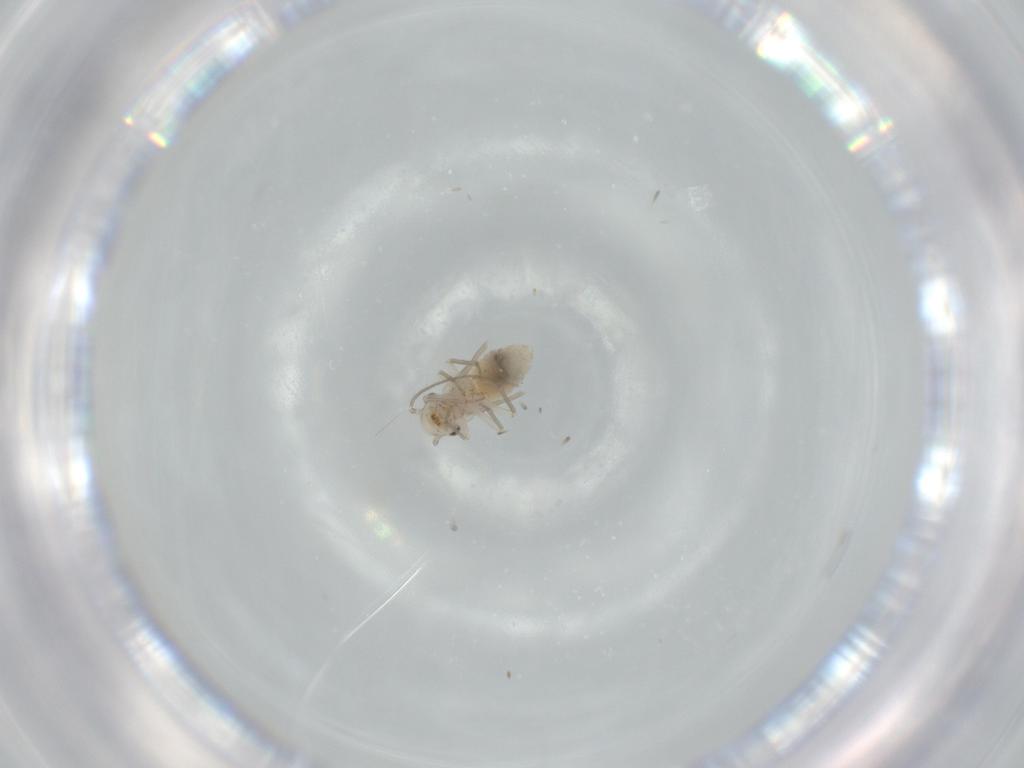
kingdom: Animalia
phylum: Arthropoda
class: Insecta
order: Psocodea
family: Lachesillidae
